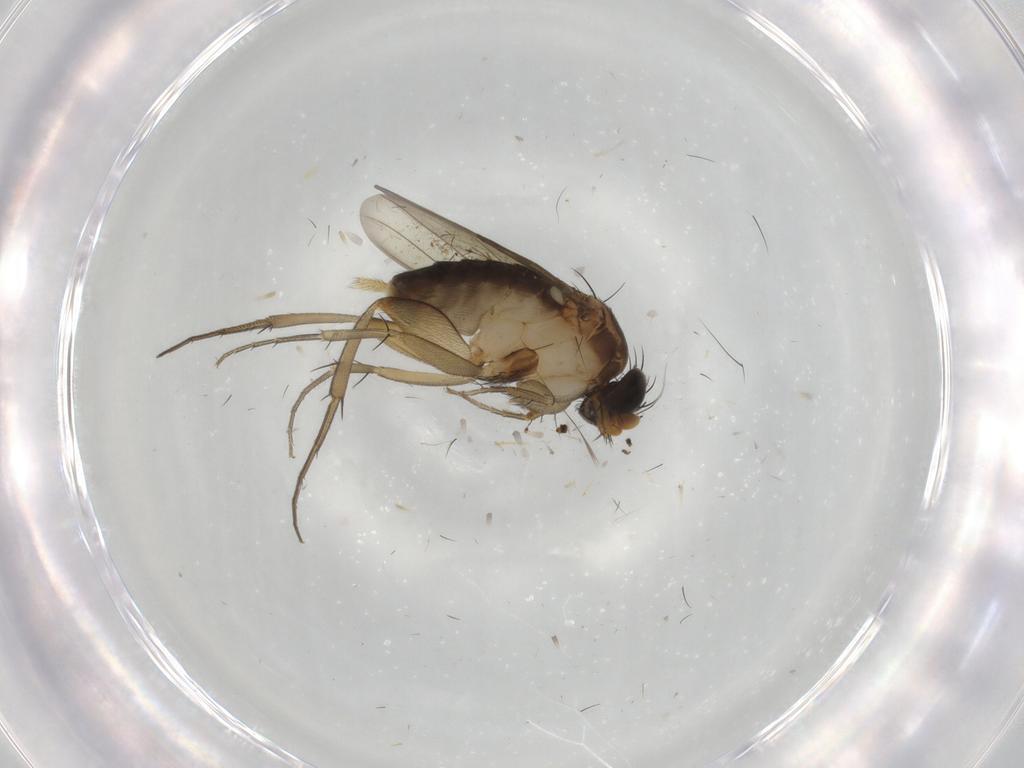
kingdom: Animalia
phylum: Arthropoda
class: Insecta
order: Diptera
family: Phoridae
